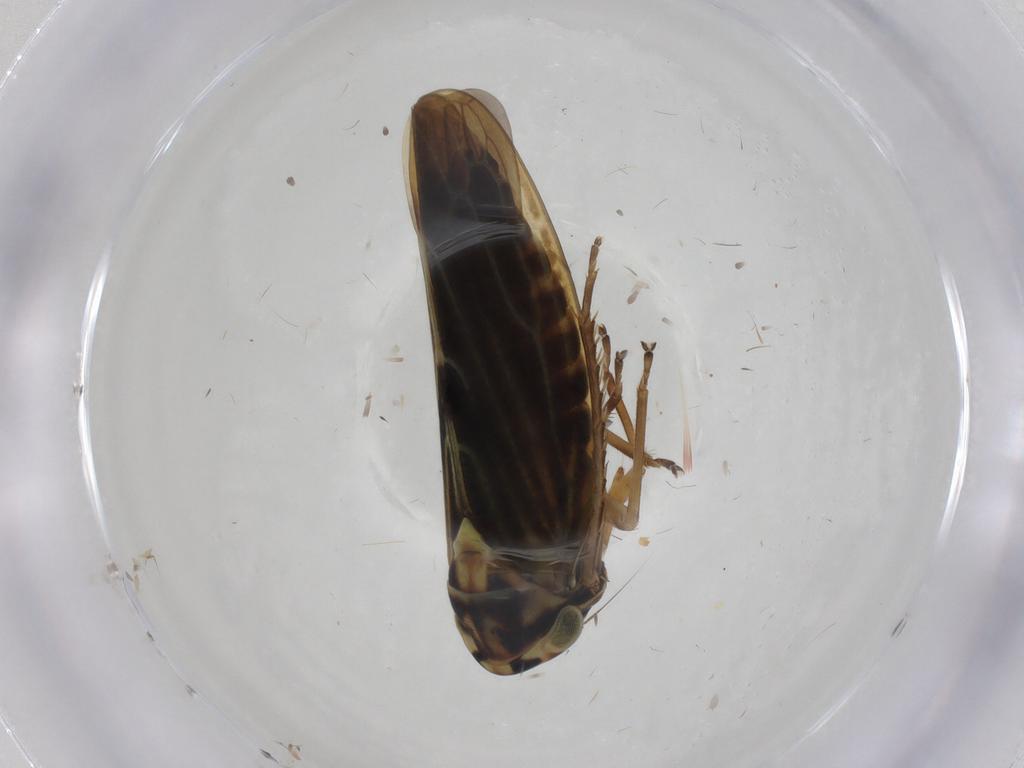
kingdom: Animalia
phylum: Arthropoda
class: Insecta
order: Hemiptera
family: Cicadellidae
